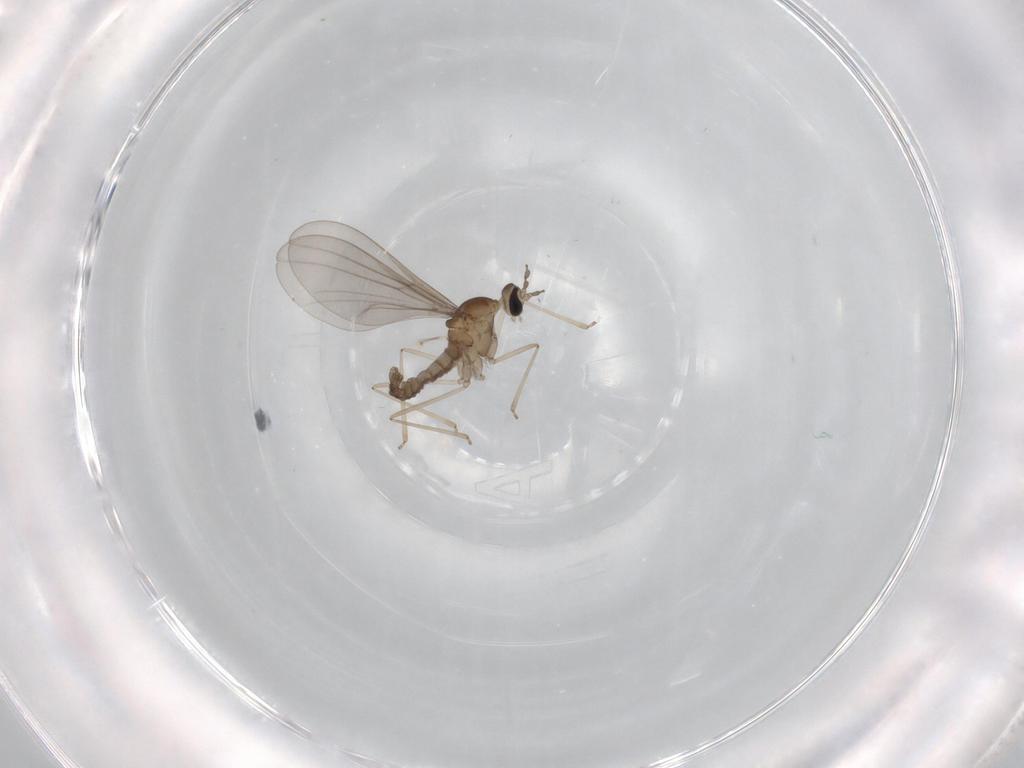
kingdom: Animalia
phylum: Arthropoda
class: Insecta
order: Diptera
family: Cecidomyiidae
